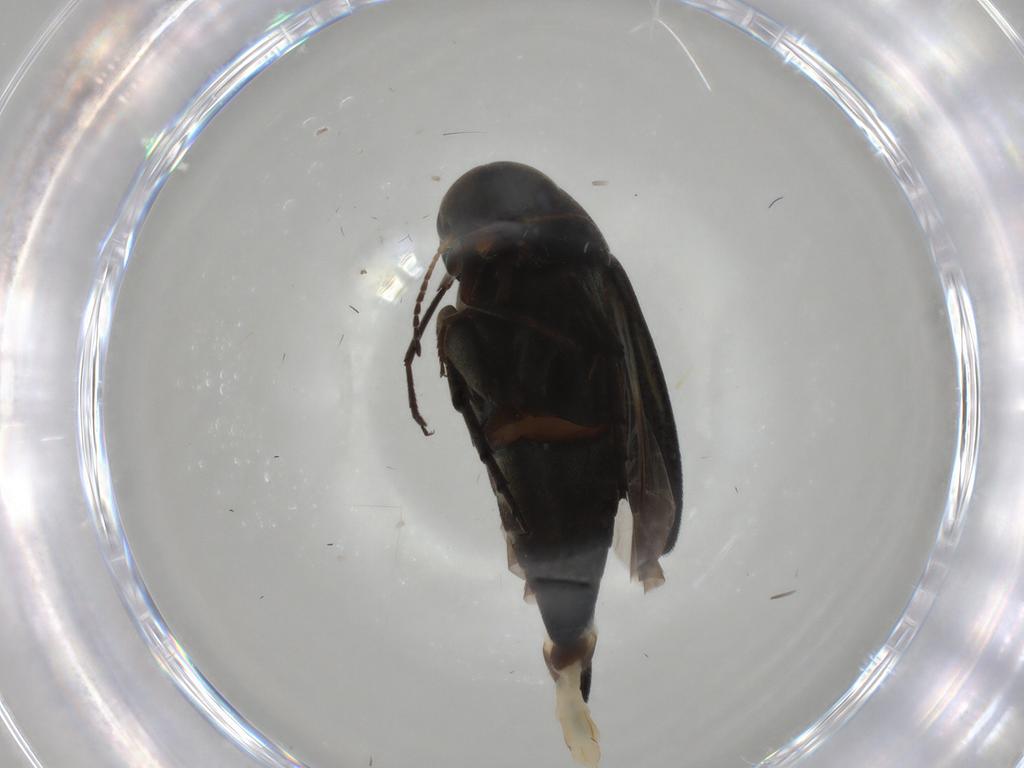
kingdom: Animalia
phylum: Arthropoda
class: Insecta
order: Coleoptera
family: Mordellidae
